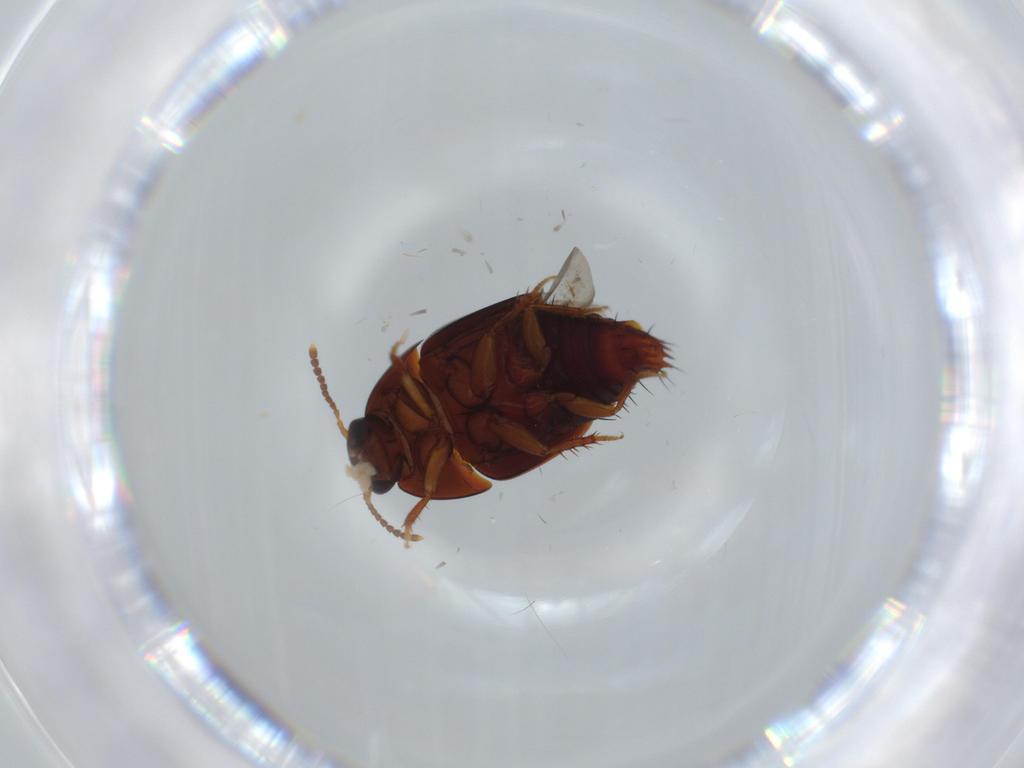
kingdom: Animalia
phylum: Arthropoda
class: Insecta
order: Coleoptera
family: Staphylinidae
